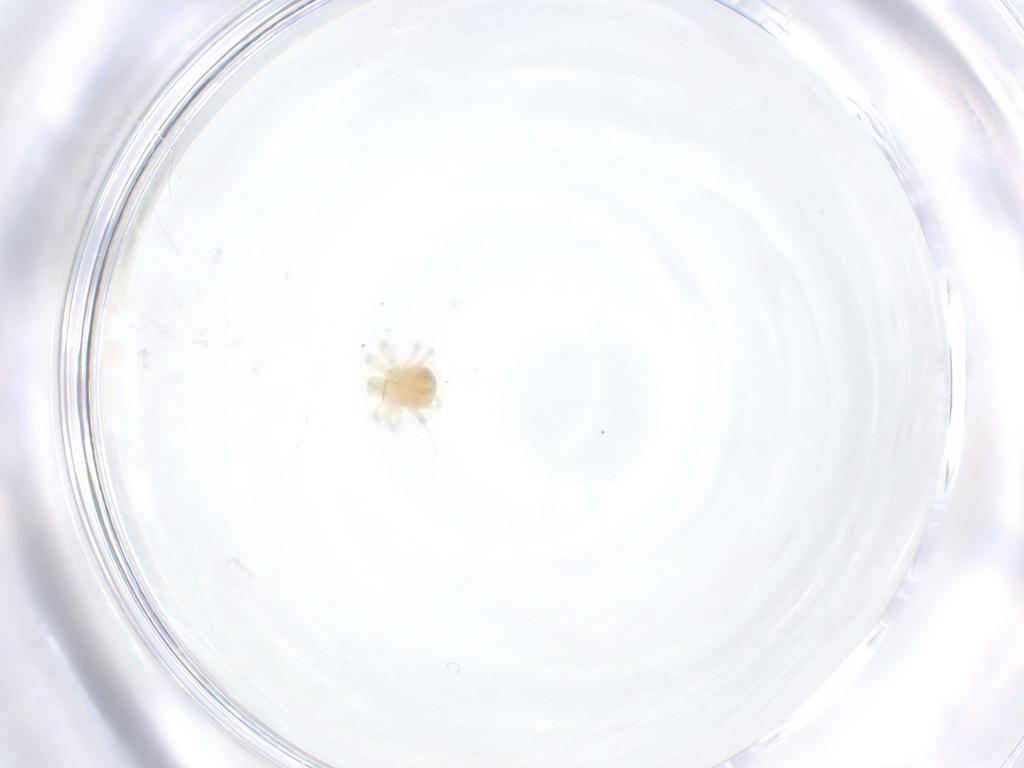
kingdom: Animalia
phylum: Arthropoda
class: Arachnida
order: Trombidiformes
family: Anystidae
